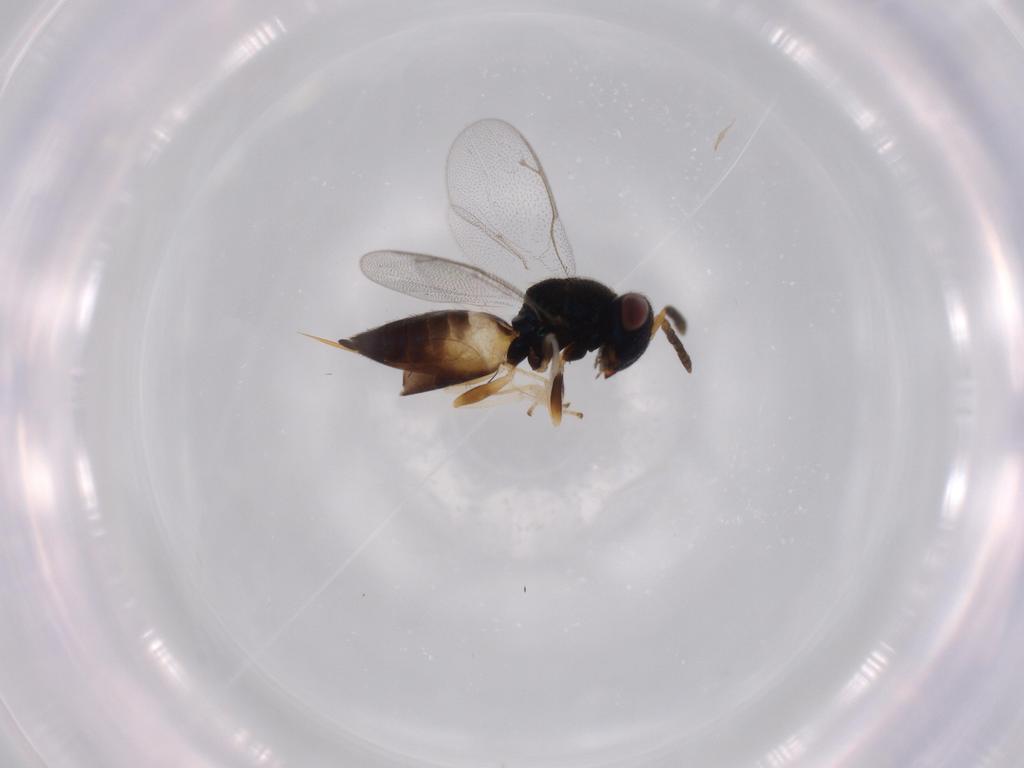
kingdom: Animalia
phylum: Arthropoda
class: Insecta
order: Hymenoptera
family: Pteromalidae
